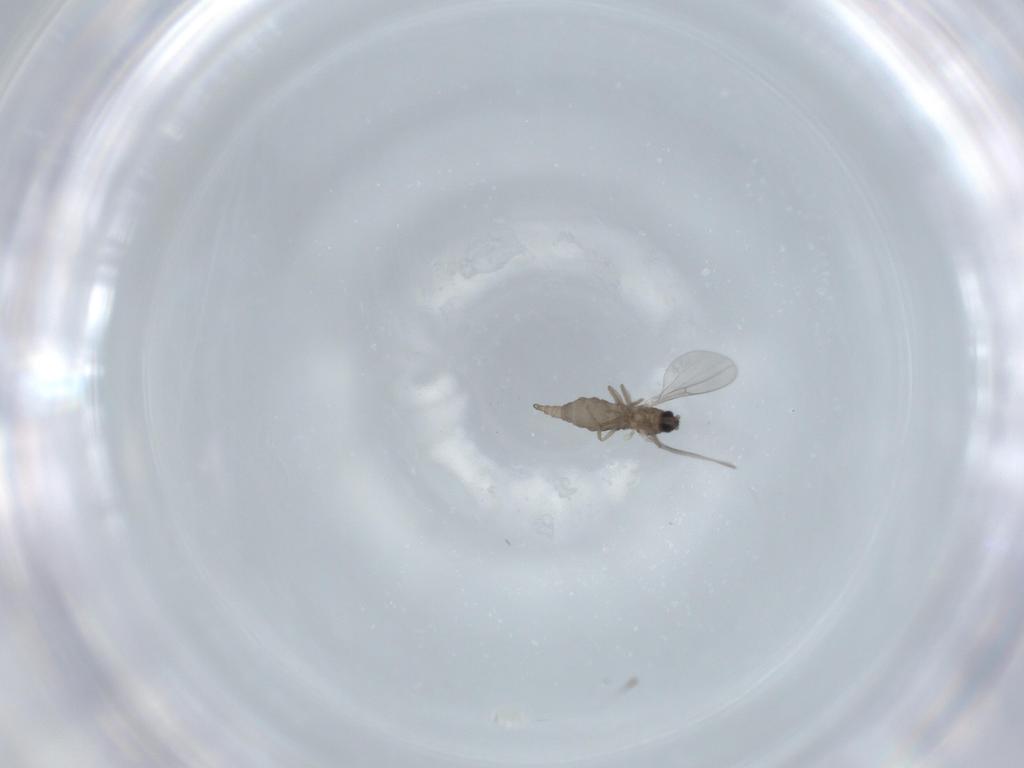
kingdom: Animalia
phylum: Arthropoda
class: Insecta
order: Diptera
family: Cecidomyiidae
